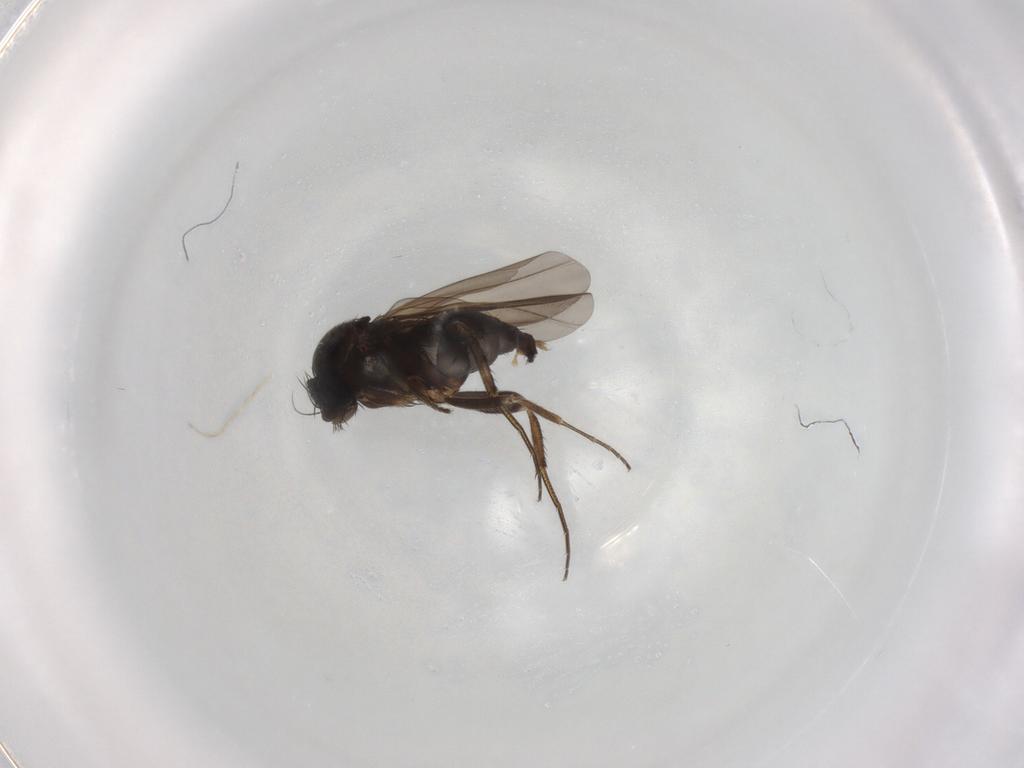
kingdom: Animalia
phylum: Arthropoda
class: Insecta
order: Diptera
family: Phoridae
